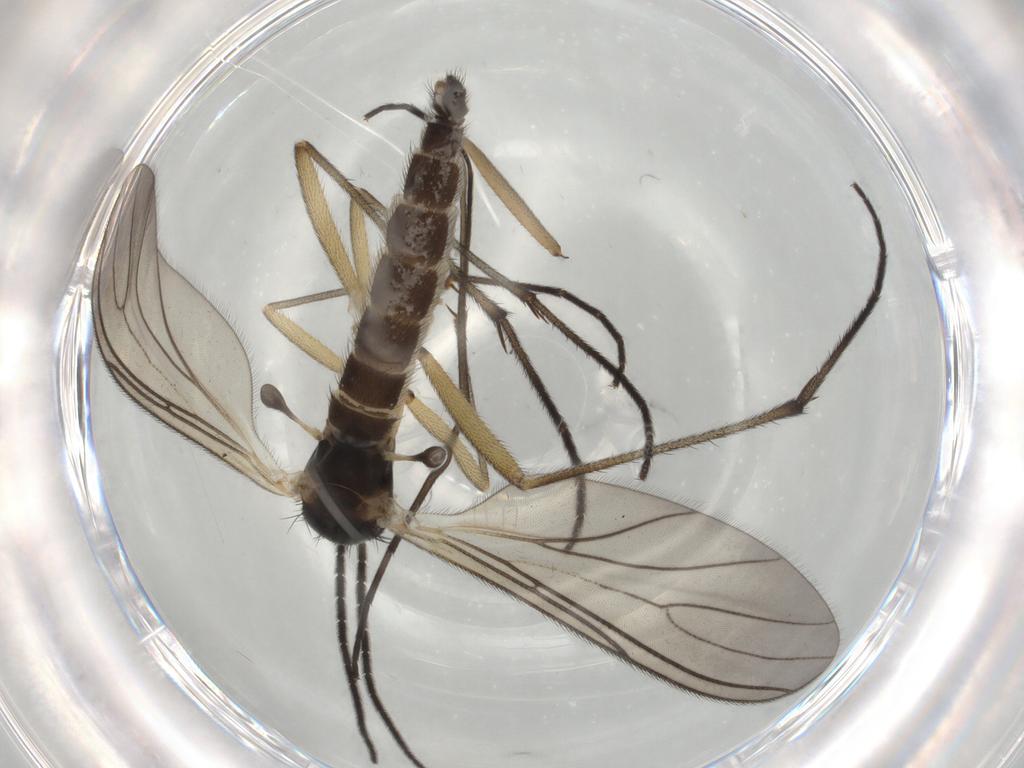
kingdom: Animalia
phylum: Arthropoda
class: Insecta
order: Diptera
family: Sciaridae
